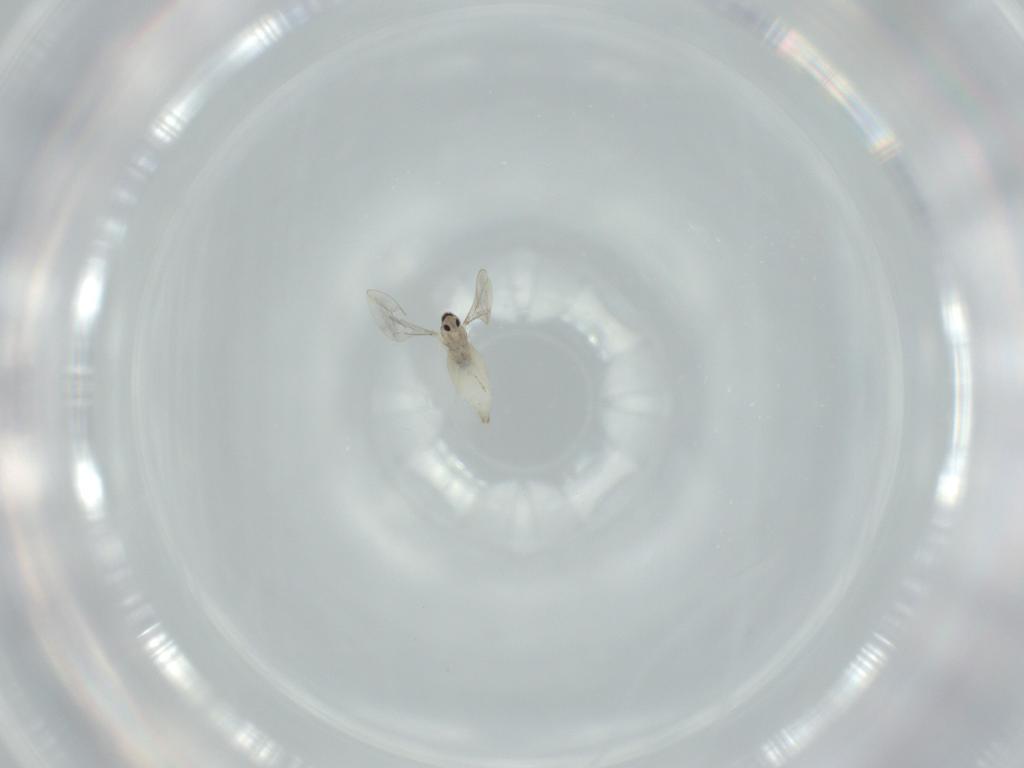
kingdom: Animalia
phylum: Arthropoda
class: Insecta
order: Diptera
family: Cecidomyiidae
